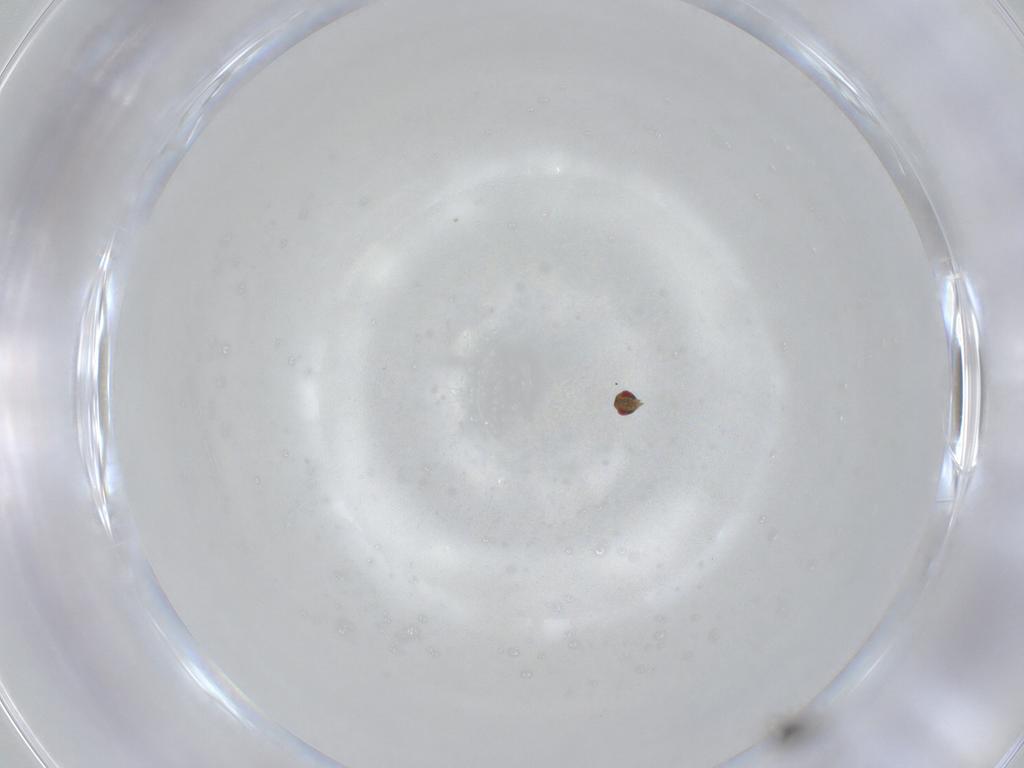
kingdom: Animalia
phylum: Arthropoda
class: Insecta
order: Hymenoptera
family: Eulophidae
